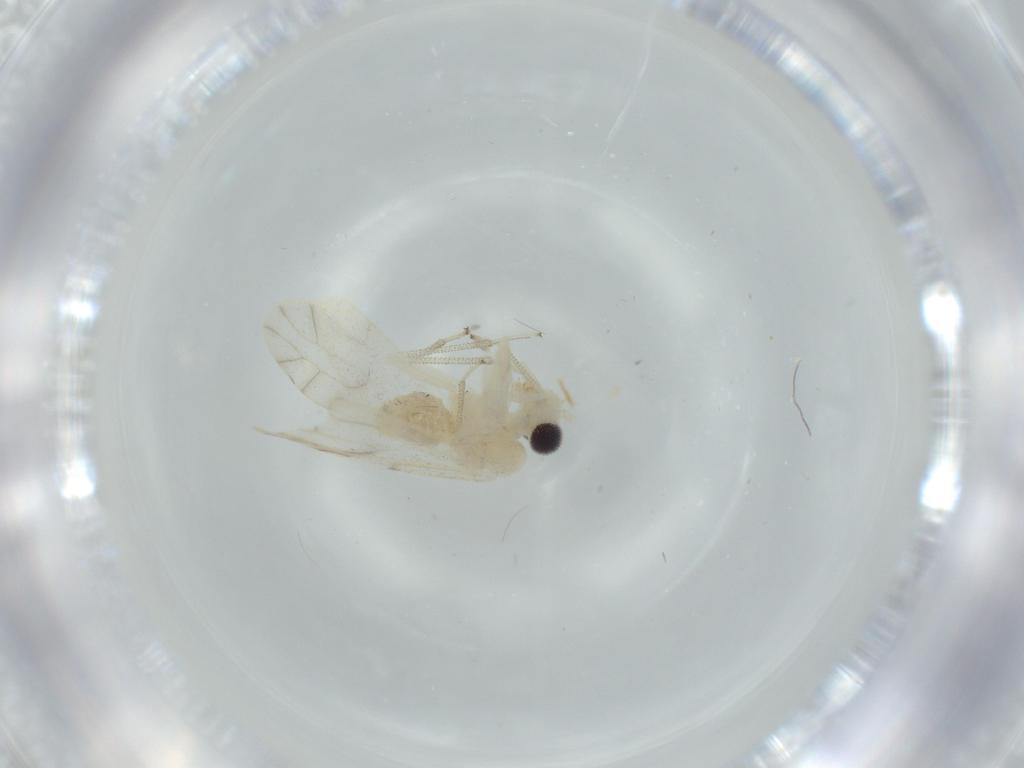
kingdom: Animalia
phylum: Arthropoda
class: Insecta
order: Psocodea
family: Caeciliusidae
